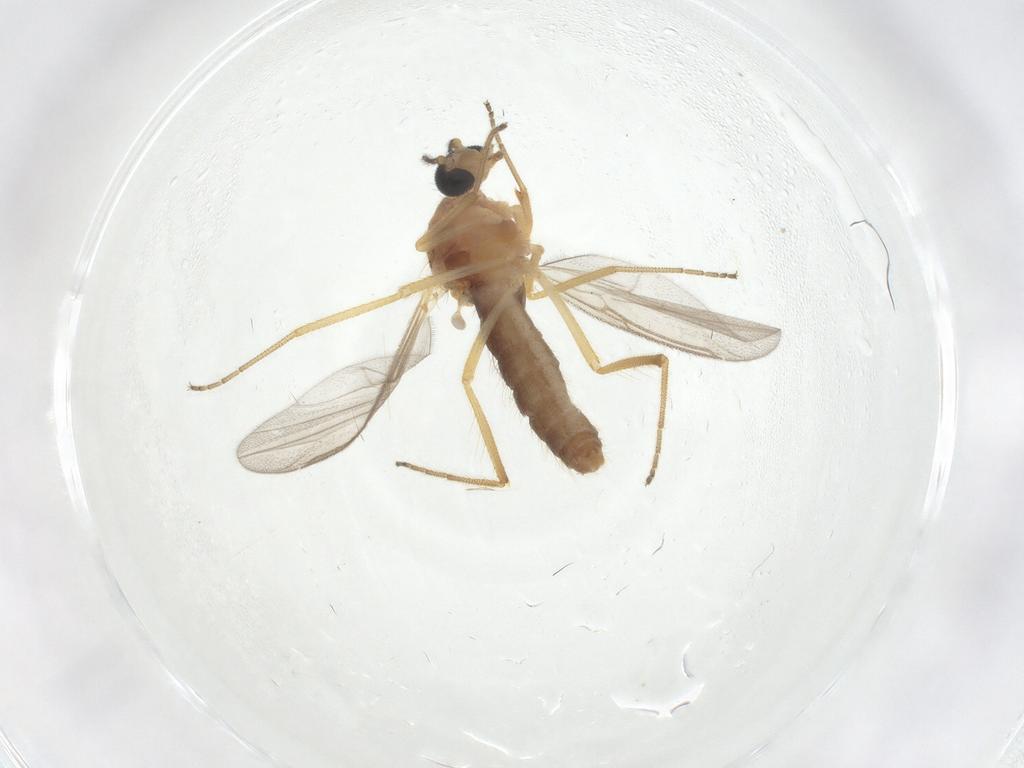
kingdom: Animalia
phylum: Arthropoda
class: Insecta
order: Diptera
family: Ceratopogonidae
